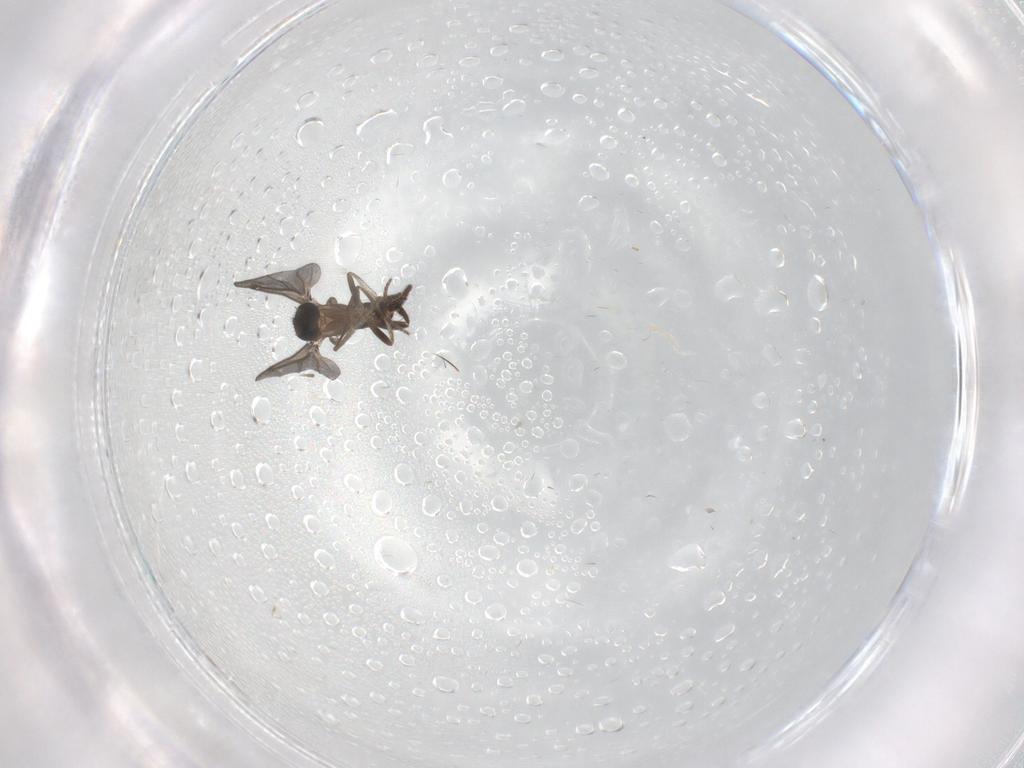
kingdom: Animalia
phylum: Arthropoda
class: Insecta
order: Diptera
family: Phoridae
